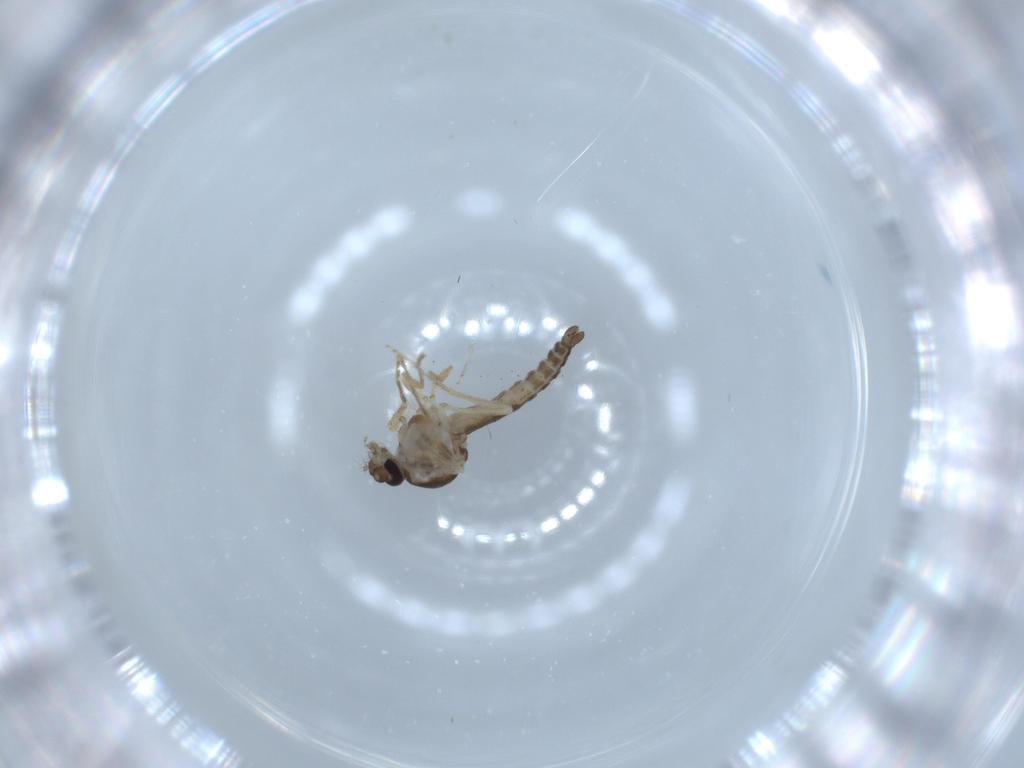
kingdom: Animalia
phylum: Arthropoda
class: Insecta
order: Diptera
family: Ceratopogonidae
